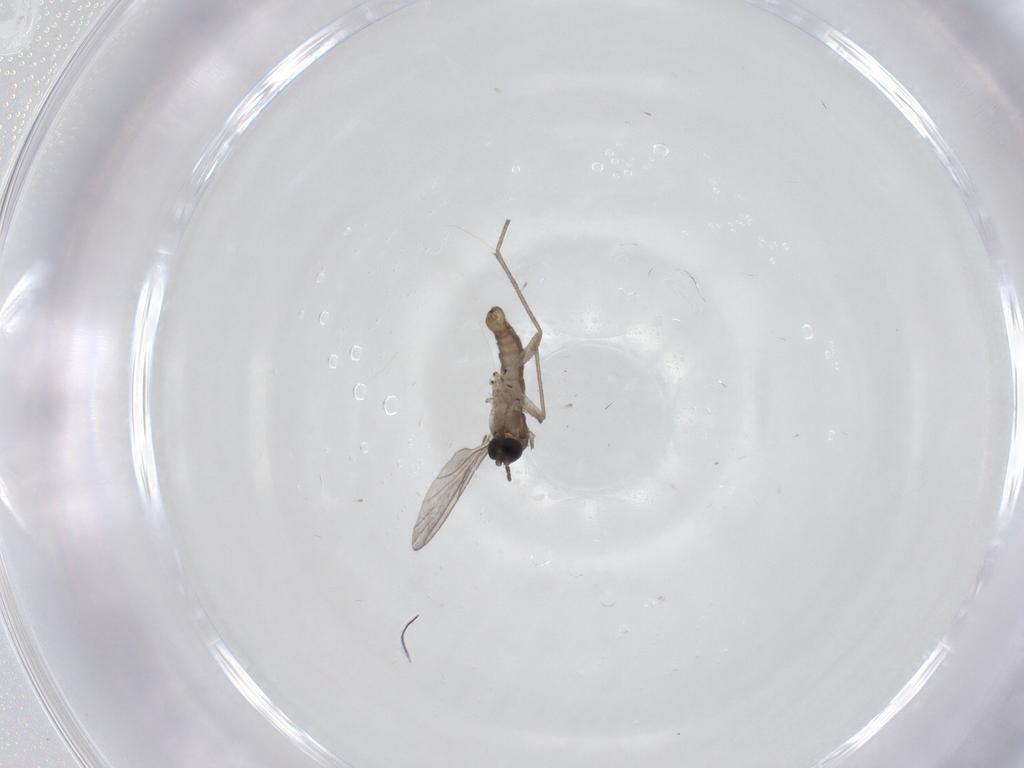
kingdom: Animalia
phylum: Arthropoda
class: Insecta
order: Diptera
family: Sciaridae
